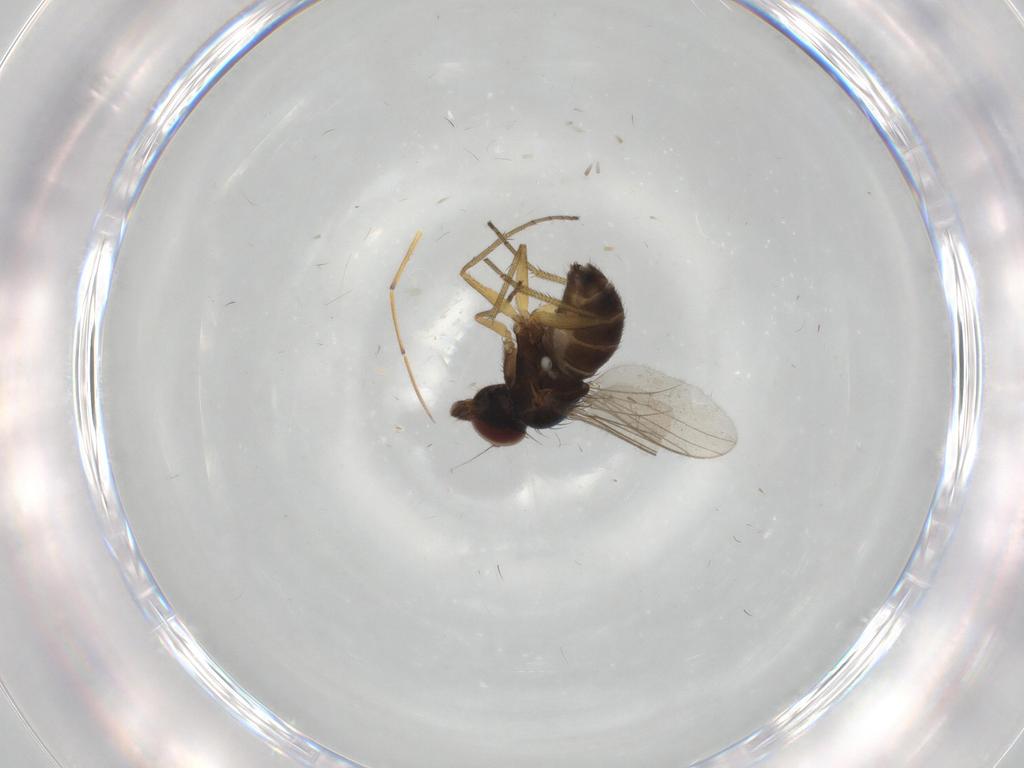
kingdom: Animalia
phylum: Arthropoda
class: Insecta
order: Diptera
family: Dolichopodidae
